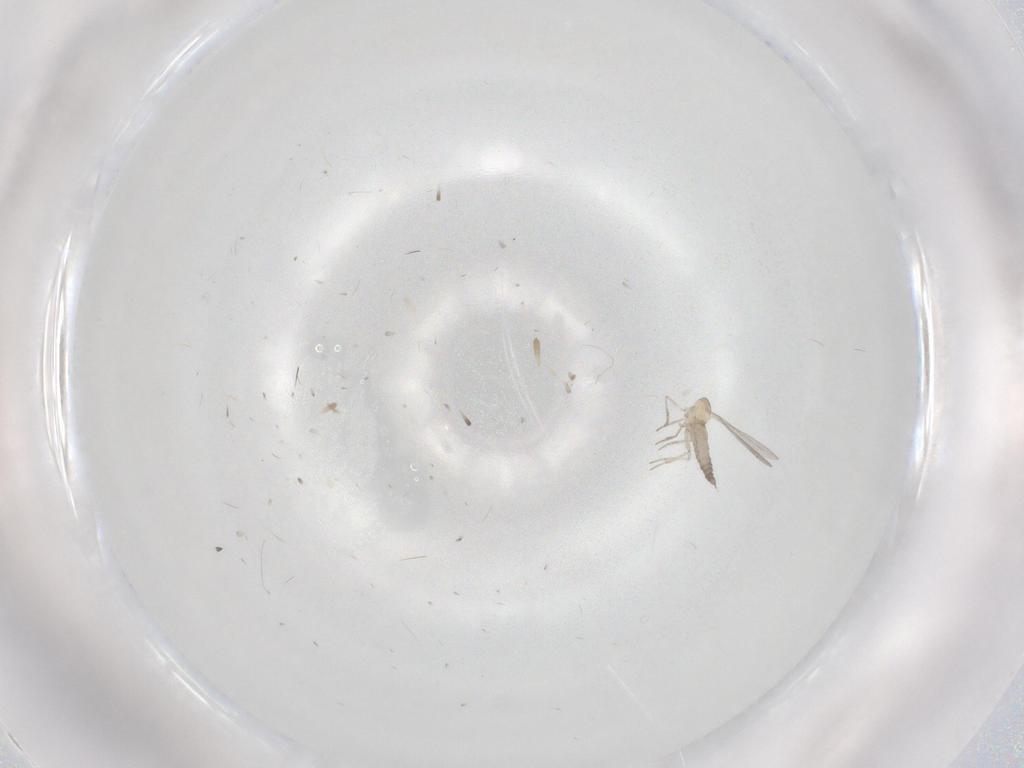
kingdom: Animalia
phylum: Arthropoda
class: Insecta
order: Diptera
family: Cecidomyiidae
